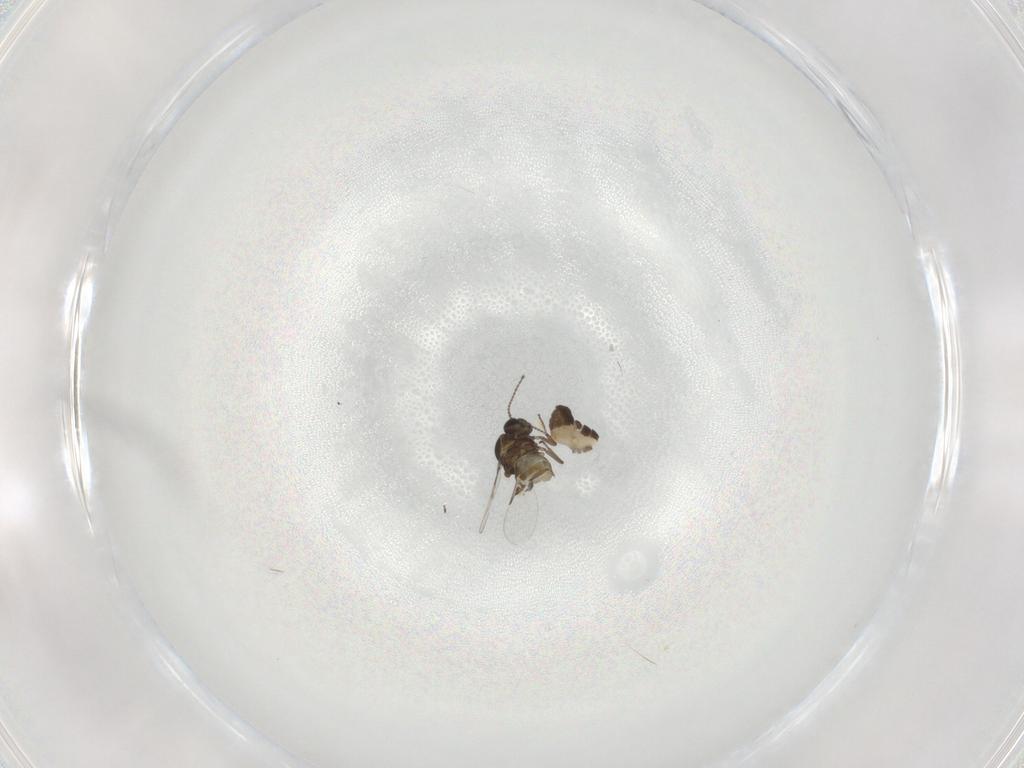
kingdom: Animalia
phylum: Arthropoda
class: Insecta
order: Diptera
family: Ceratopogonidae
